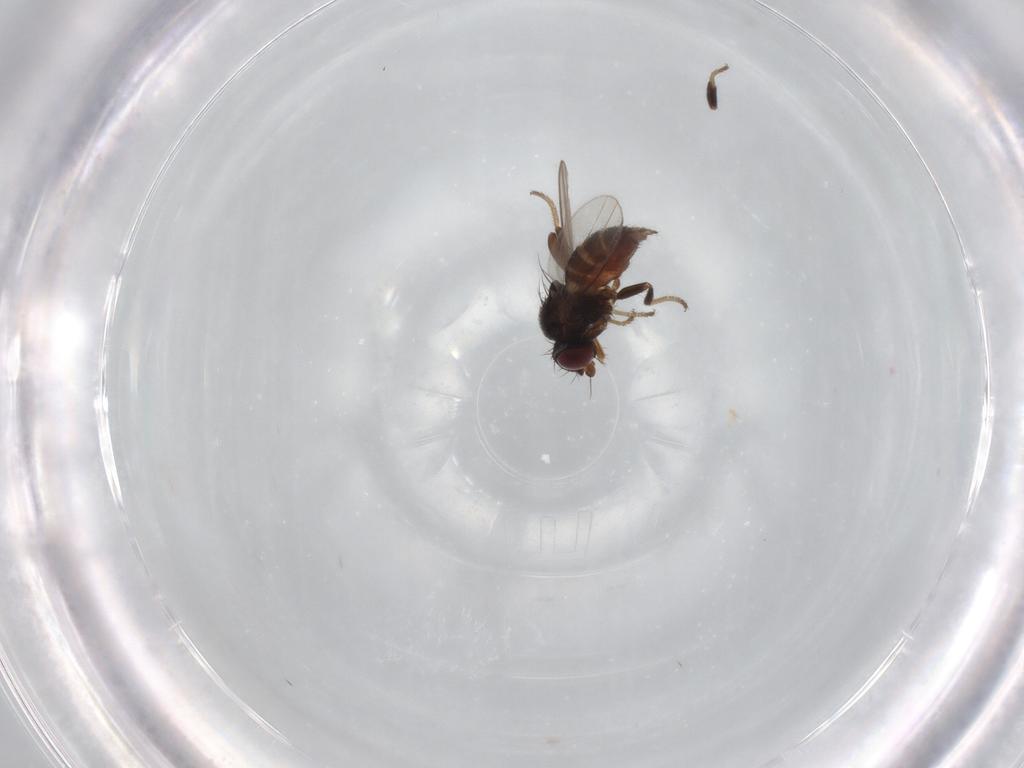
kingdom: Animalia
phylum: Arthropoda
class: Insecta
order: Diptera
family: Milichiidae
